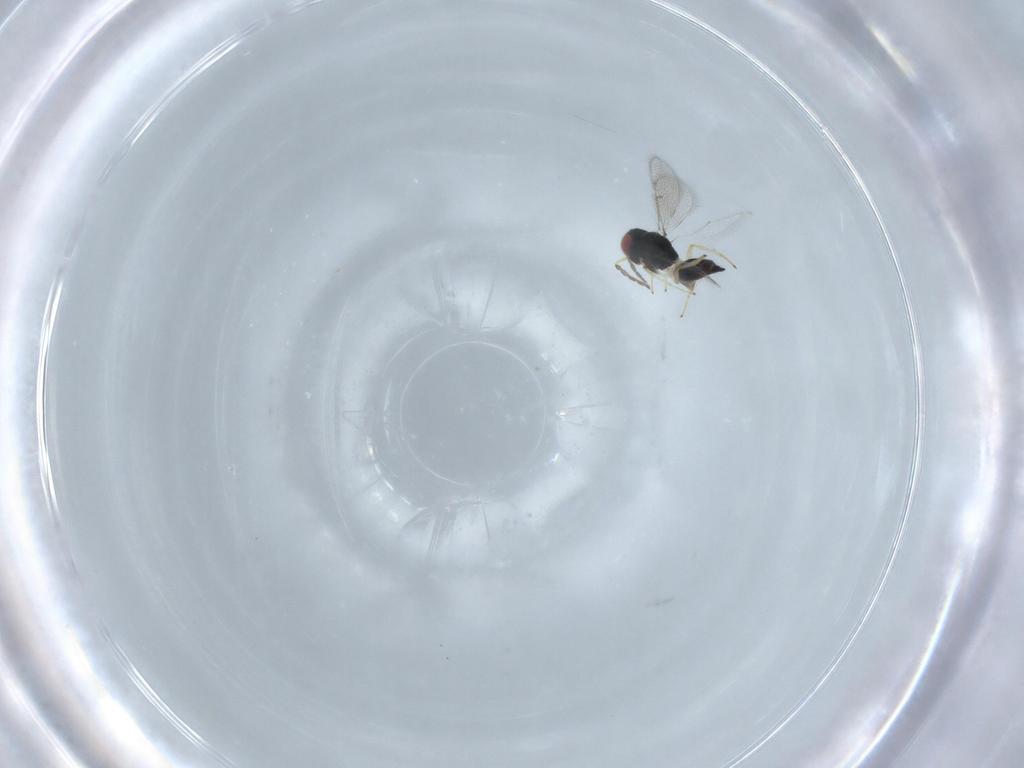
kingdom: Animalia
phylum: Arthropoda
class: Insecta
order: Hymenoptera
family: Eulophidae
